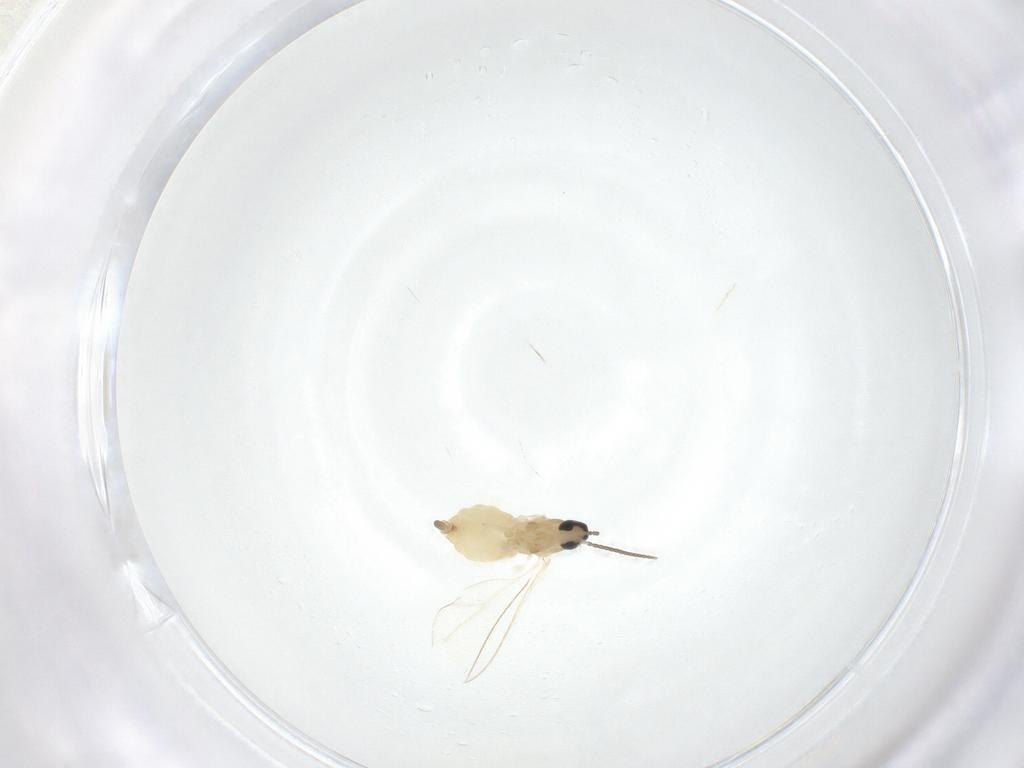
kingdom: Animalia
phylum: Arthropoda
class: Insecta
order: Diptera
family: Cecidomyiidae
